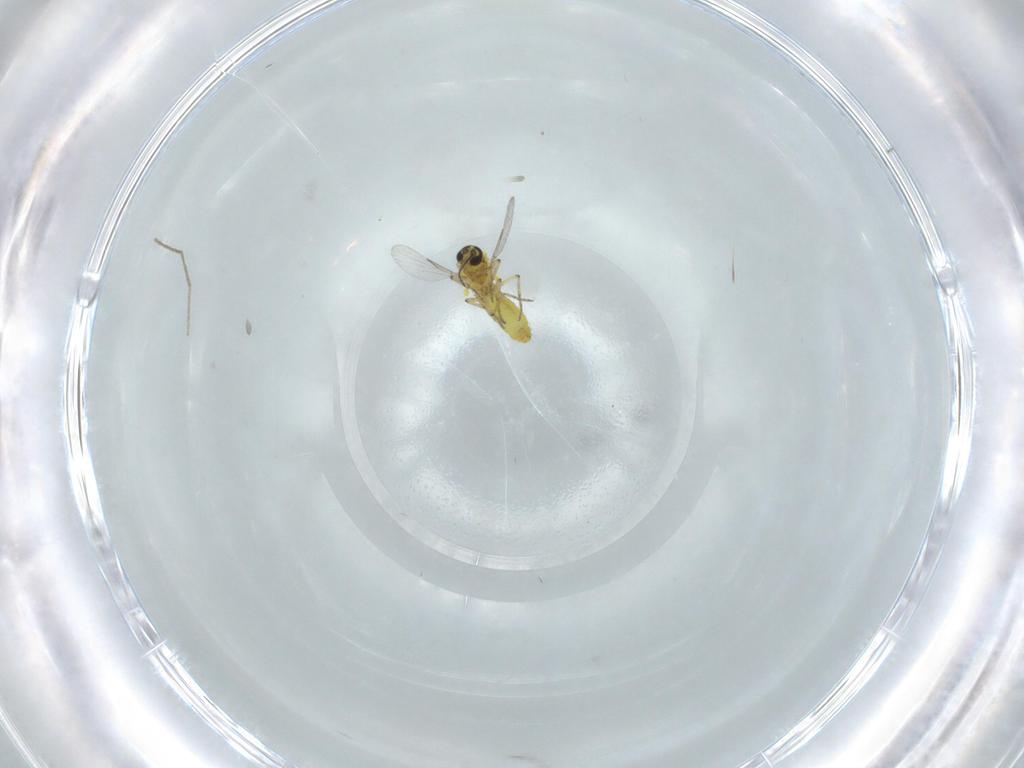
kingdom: Animalia
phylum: Arthropoda
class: Insecta
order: Diptera
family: Ceratopogonidae
